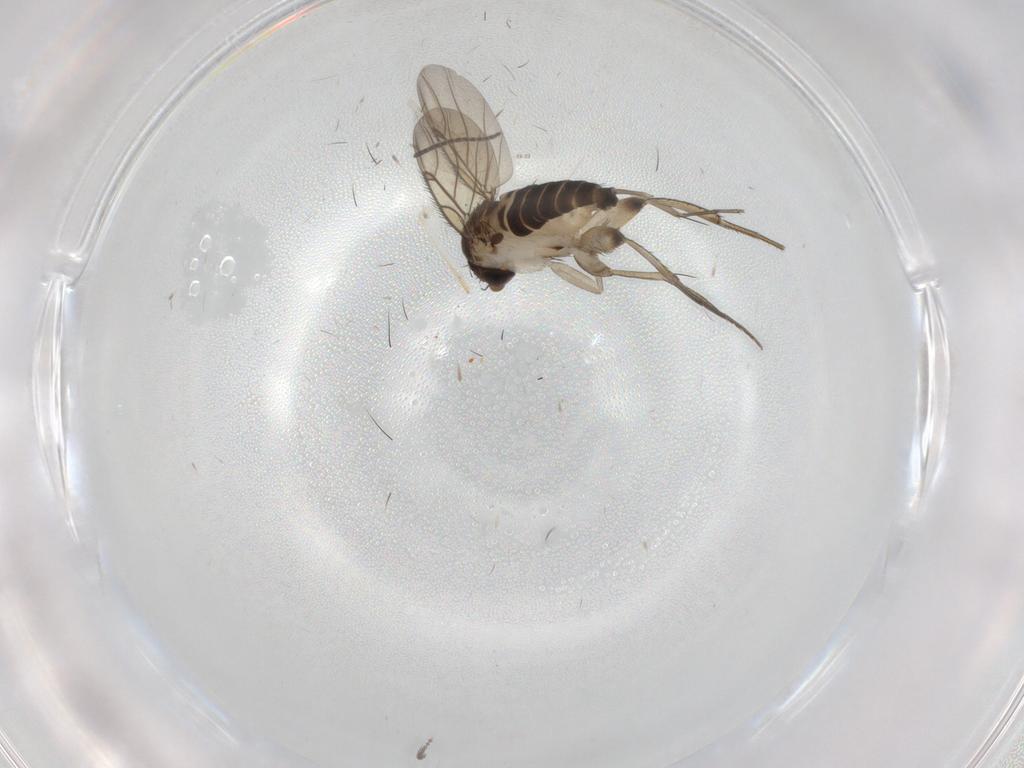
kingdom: Animalia
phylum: Arthropoda
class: Insecta
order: Diptera
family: Phoridae
